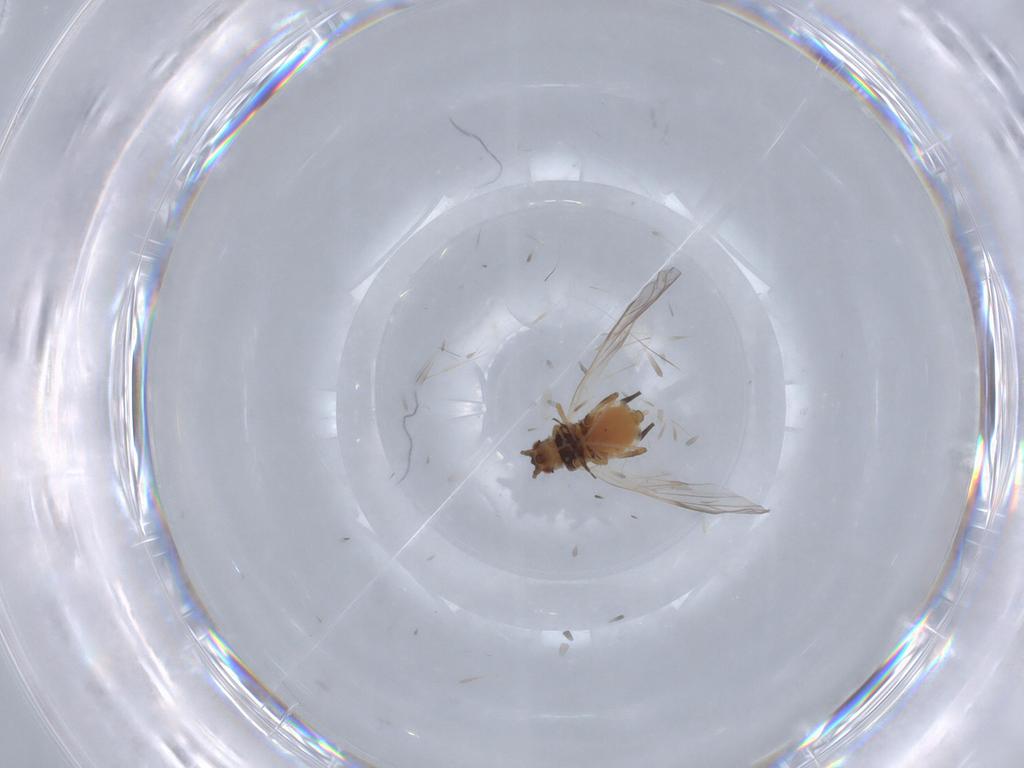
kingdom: Animalia
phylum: Arthropoda
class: Insecta
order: Hemiptera
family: Aphididae
